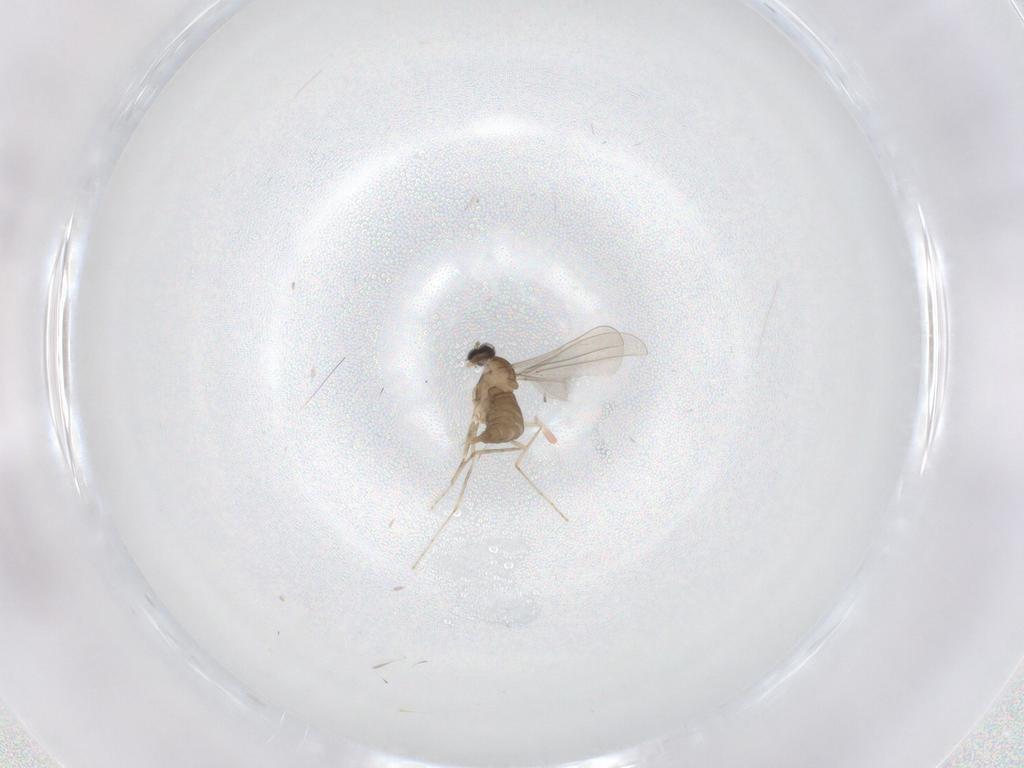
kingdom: Animalia
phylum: Arthropoda
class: Insecta
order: Diptera
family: Cecidomyiidae
